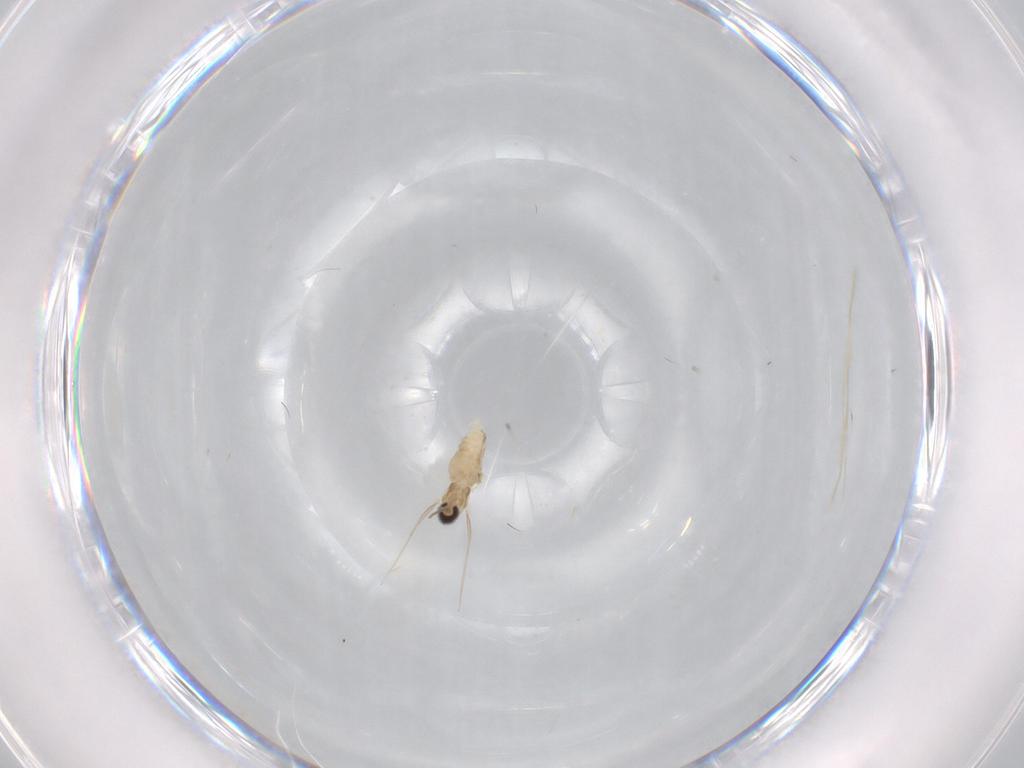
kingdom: Animalia
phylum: Arthropoda
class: Insecta
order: Diptera
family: Cecidomyiidae
